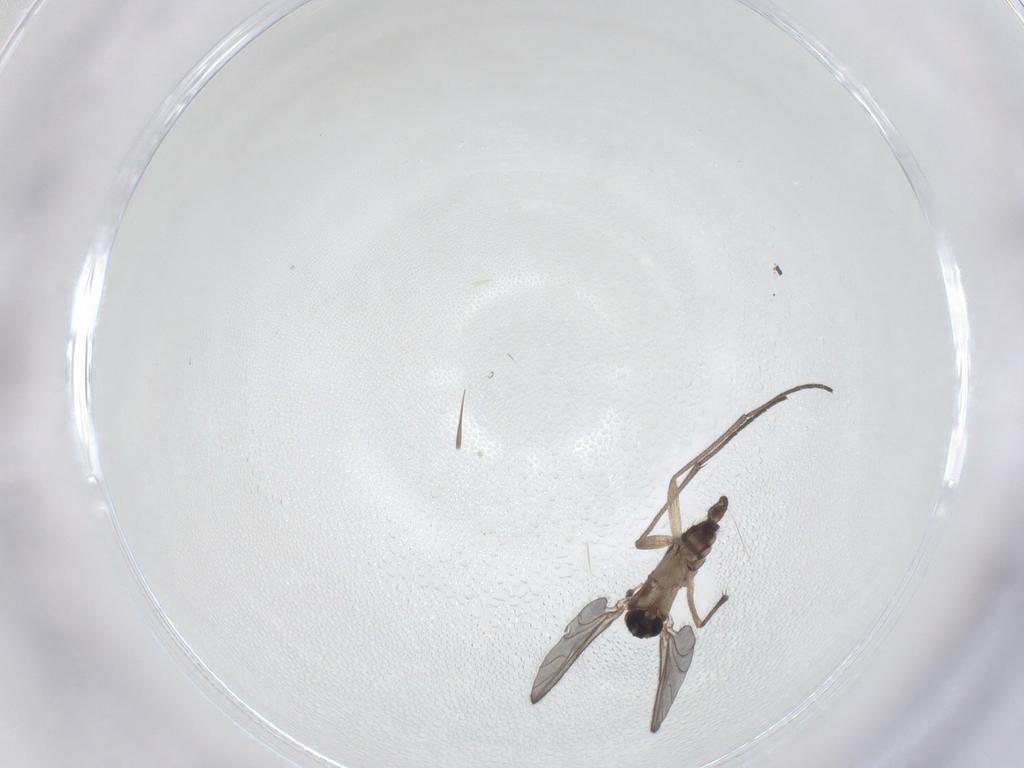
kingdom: Animalia
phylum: Arthropoda
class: Insecta
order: Diptera
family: Sciaridae
